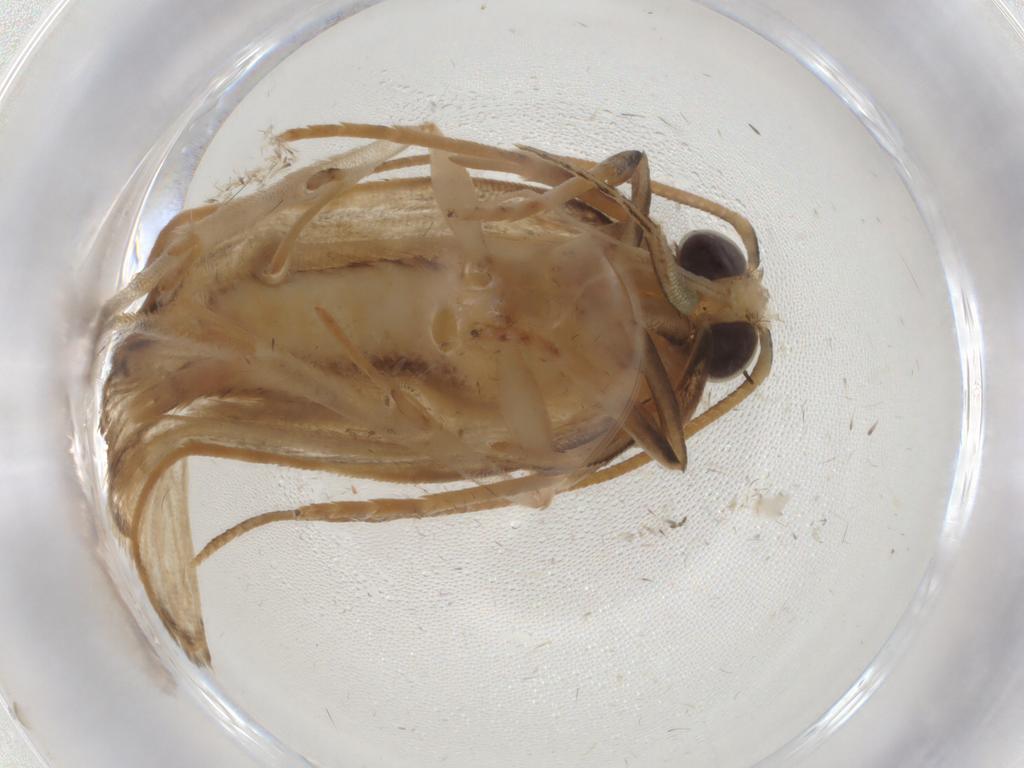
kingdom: Animalia
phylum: Arthropoda
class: Insecta
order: Lepidoptera
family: Depressariidae
